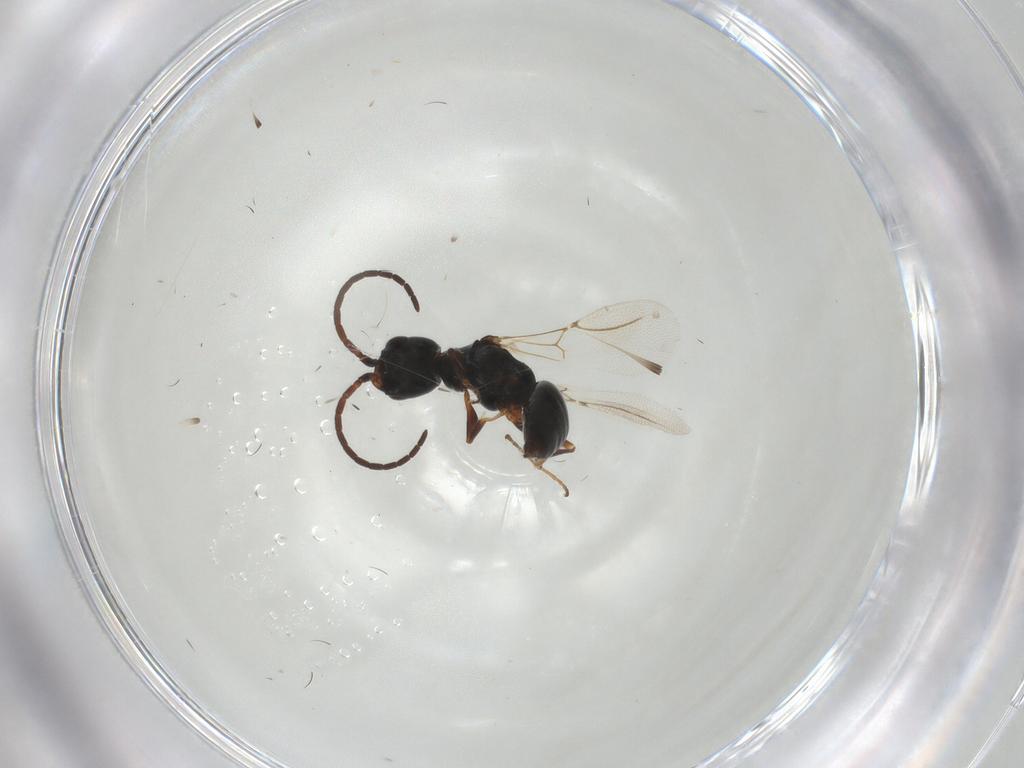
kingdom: Animalia
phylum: Arthropoda
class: Insecta
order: Hymenoptera
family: Bethylidae
